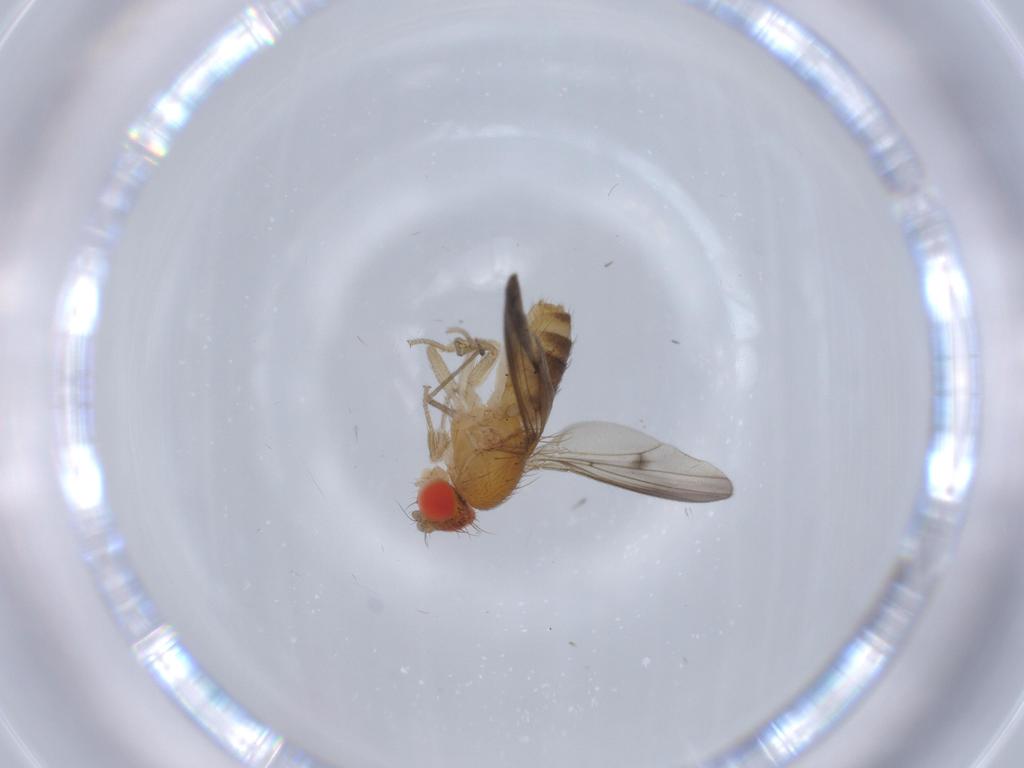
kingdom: Animalia
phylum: Arthropoda
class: Insecta
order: Diptera
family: Drosophilidae
